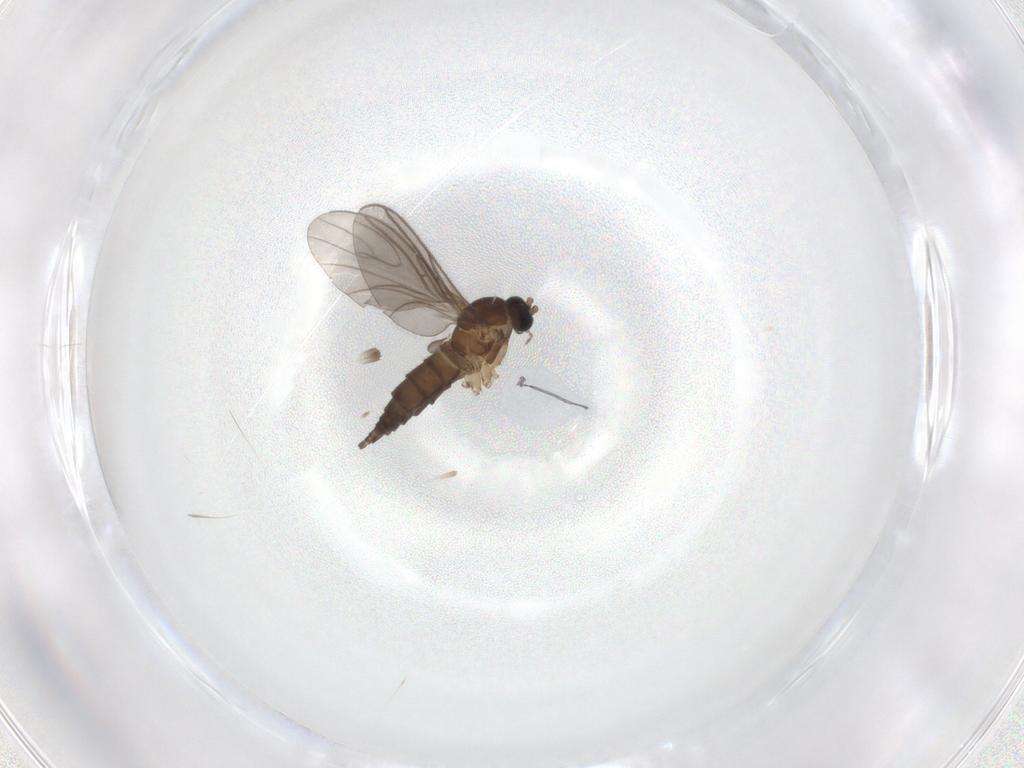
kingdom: Animalia
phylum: Arthropoda
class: Insecta
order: Diptera
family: Sciaridae
